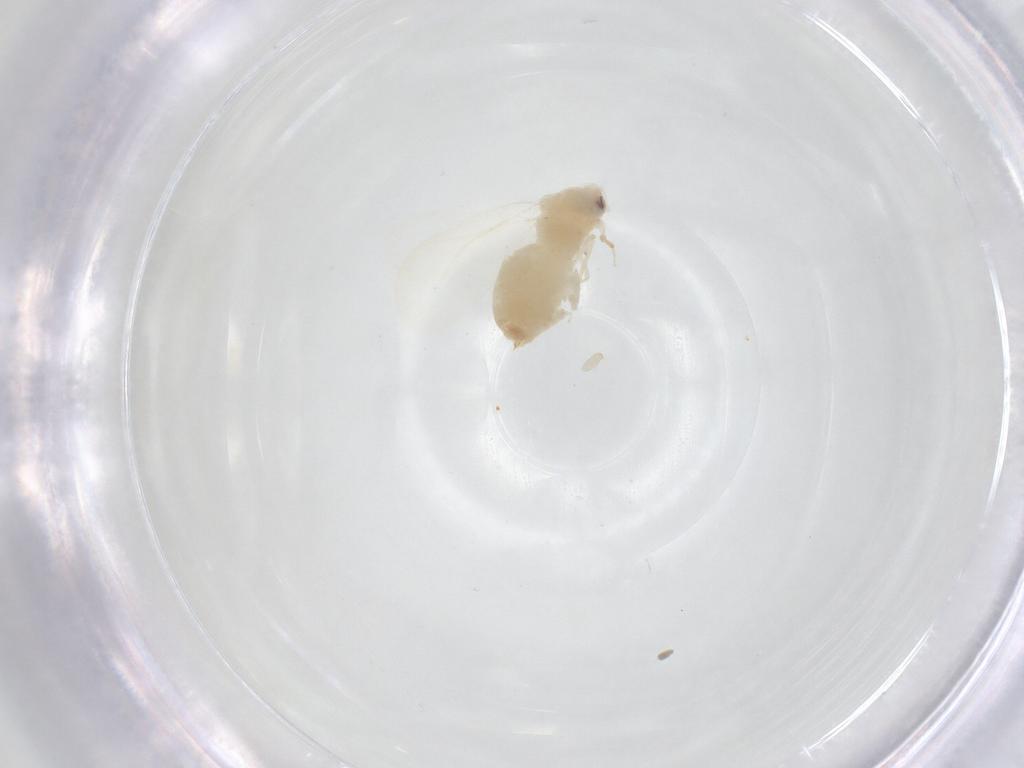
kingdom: Animalia
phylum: Arthropoda
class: Insecta
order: Hemiptera
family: Aleyrodidae
